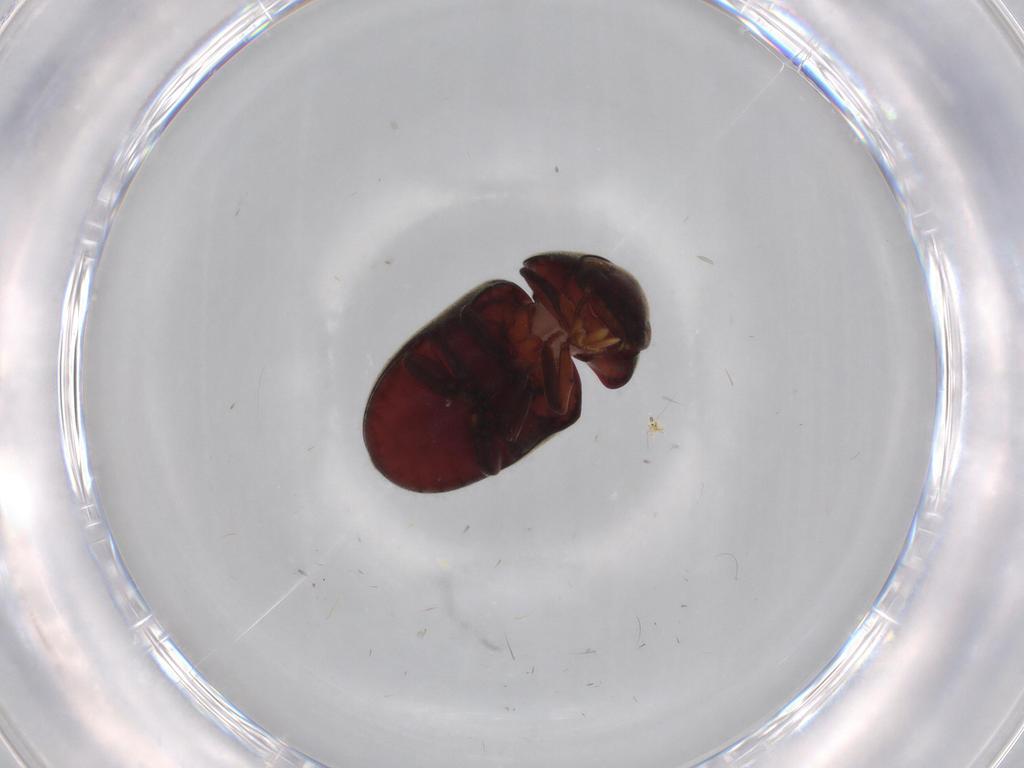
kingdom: Animalia
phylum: Arthropoda
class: Insecta
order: Coleoptera
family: Ptinidae
